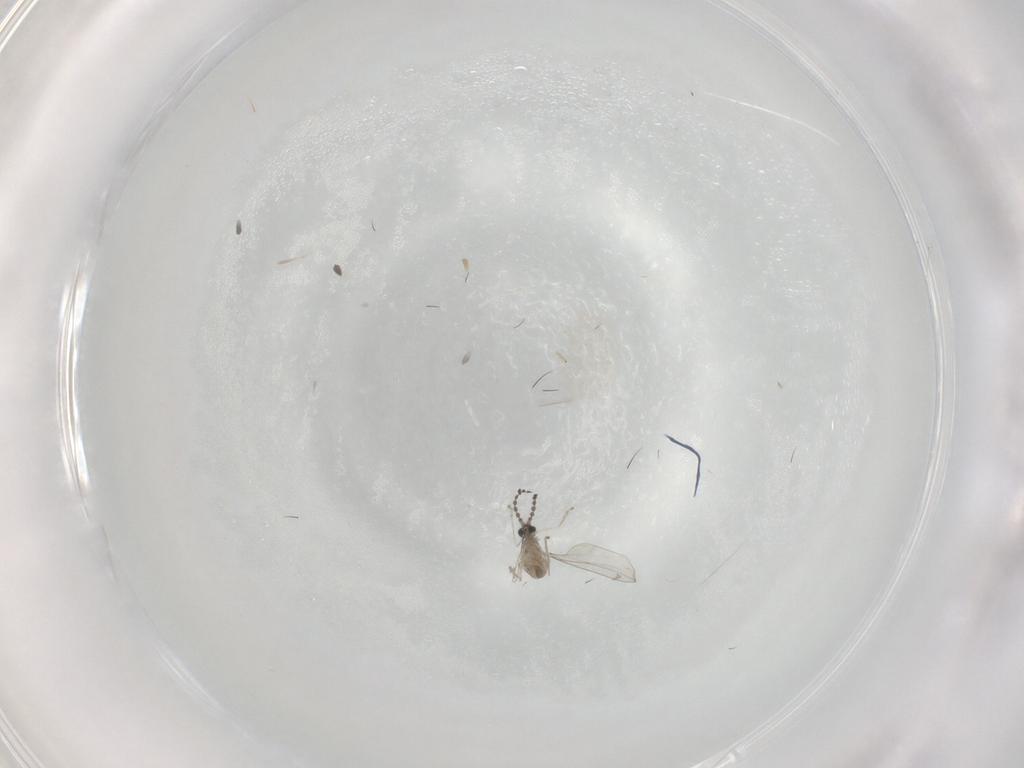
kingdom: Animalia
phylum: Arthropoda
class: Insecta
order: Diptera
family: Cecidomyiidae
